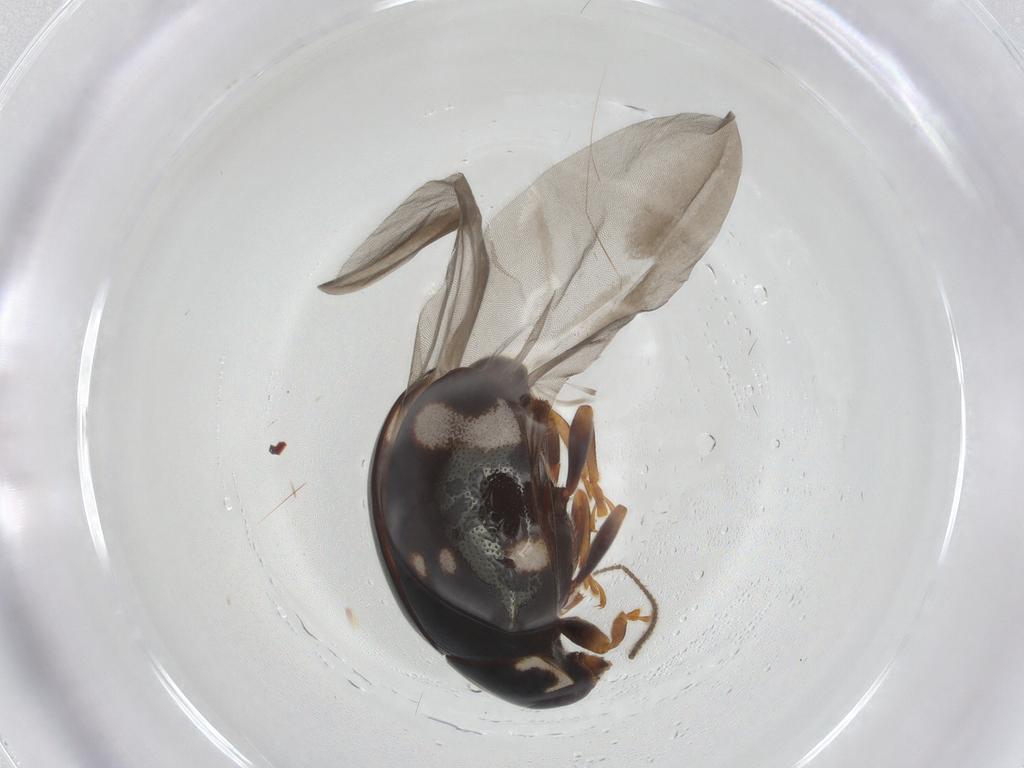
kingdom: Animalia
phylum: Arthropoda
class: Insecta
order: Coleoptera
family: Coccinellidae
